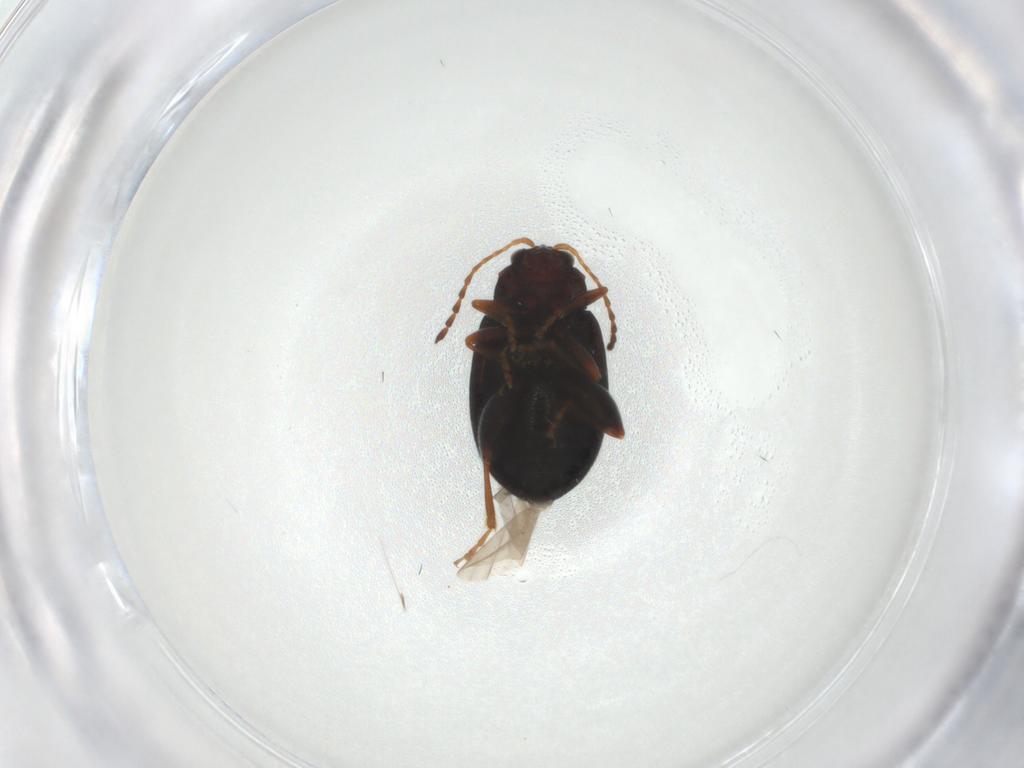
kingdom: Animalia
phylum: Arthropoda
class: Insecta
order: Coleoptera
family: Chrysomelidae
